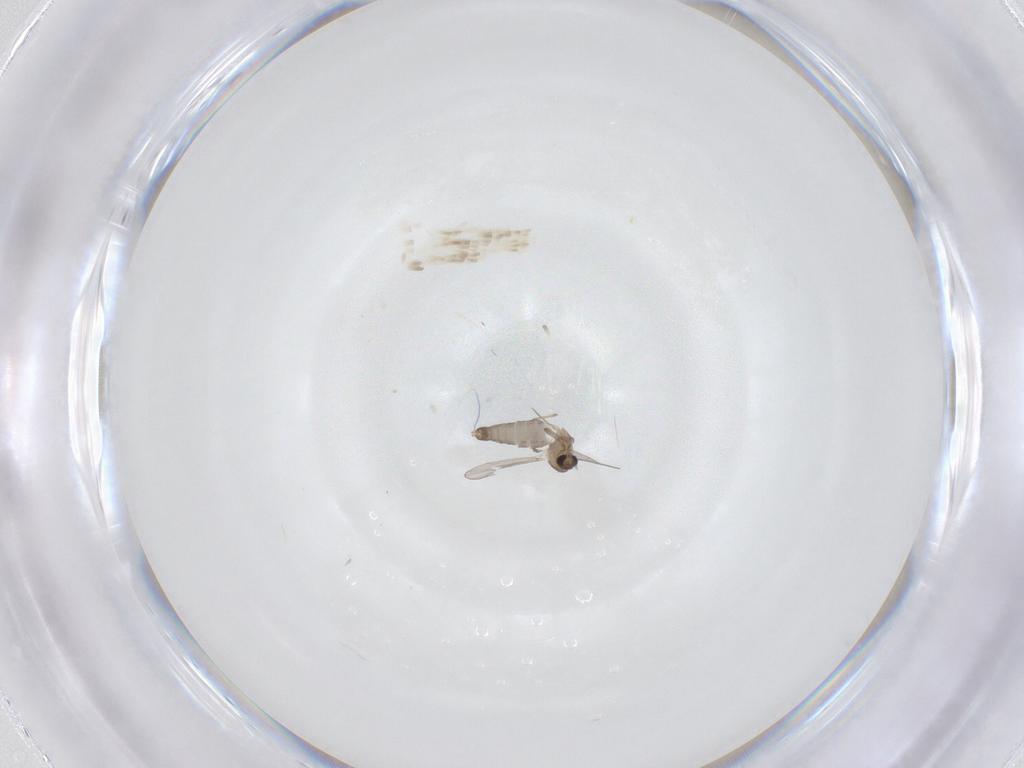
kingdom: Animalia
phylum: Arthropoda
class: Insecta
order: Diptera
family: Chironomidae
